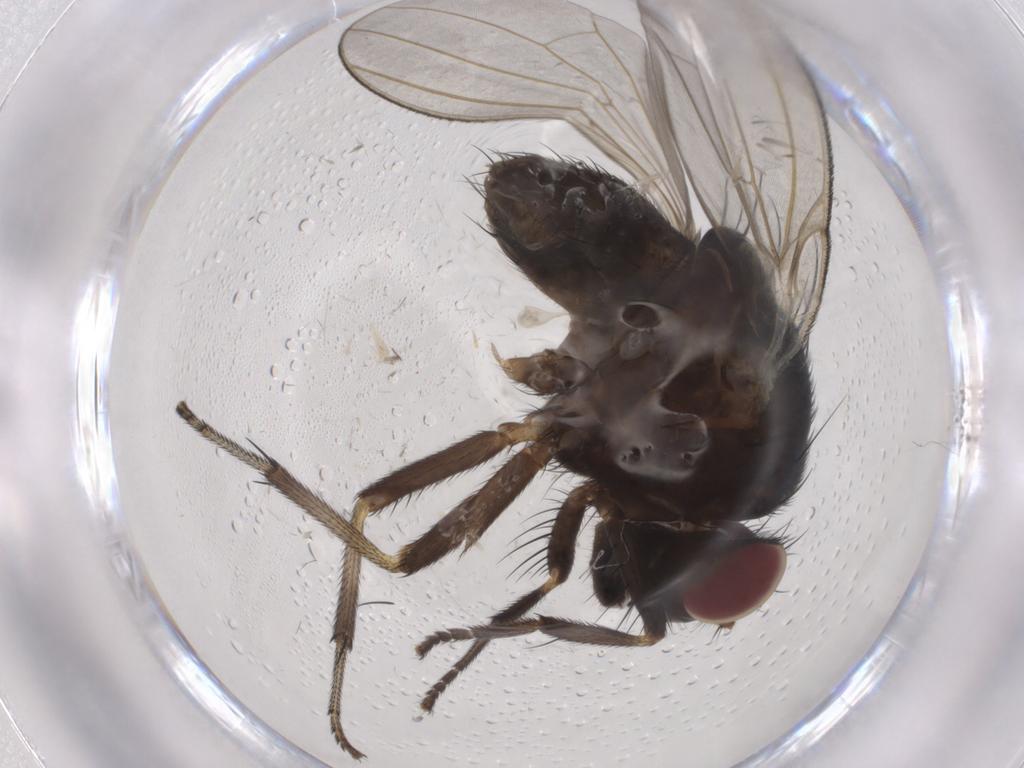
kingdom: Animalia
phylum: Arthropoda
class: Insecta
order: Diptera
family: Lauxaniidae
